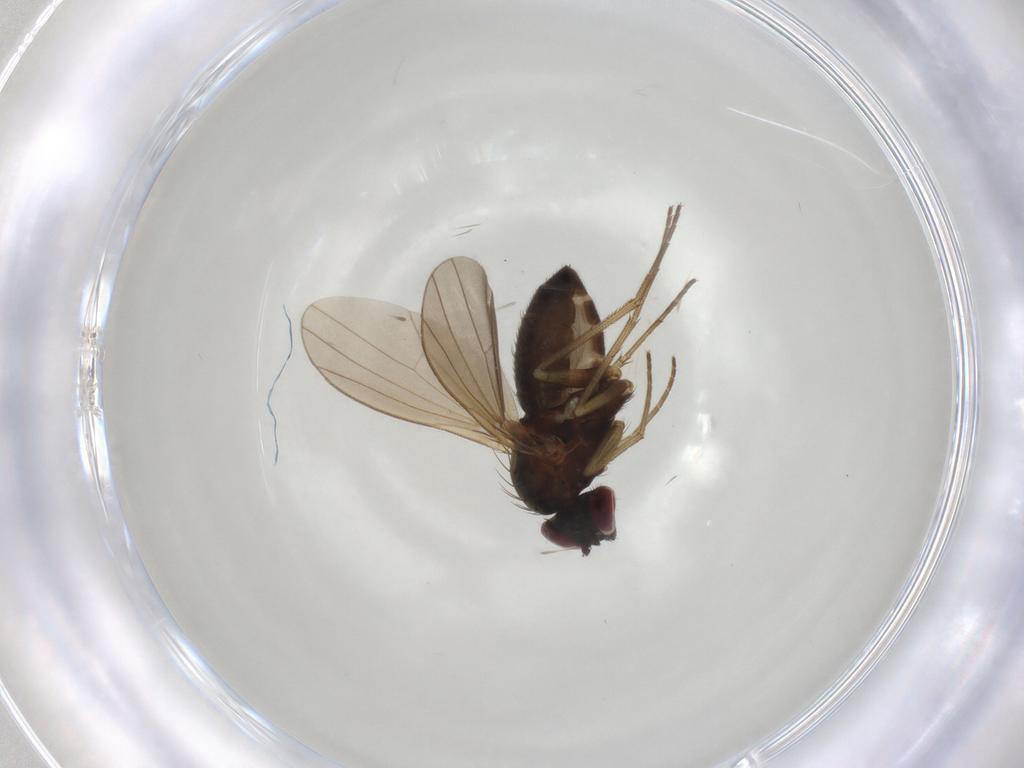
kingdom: Animalia
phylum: Arthropoda
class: Insecta
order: Diptera
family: Dolichopodidae
